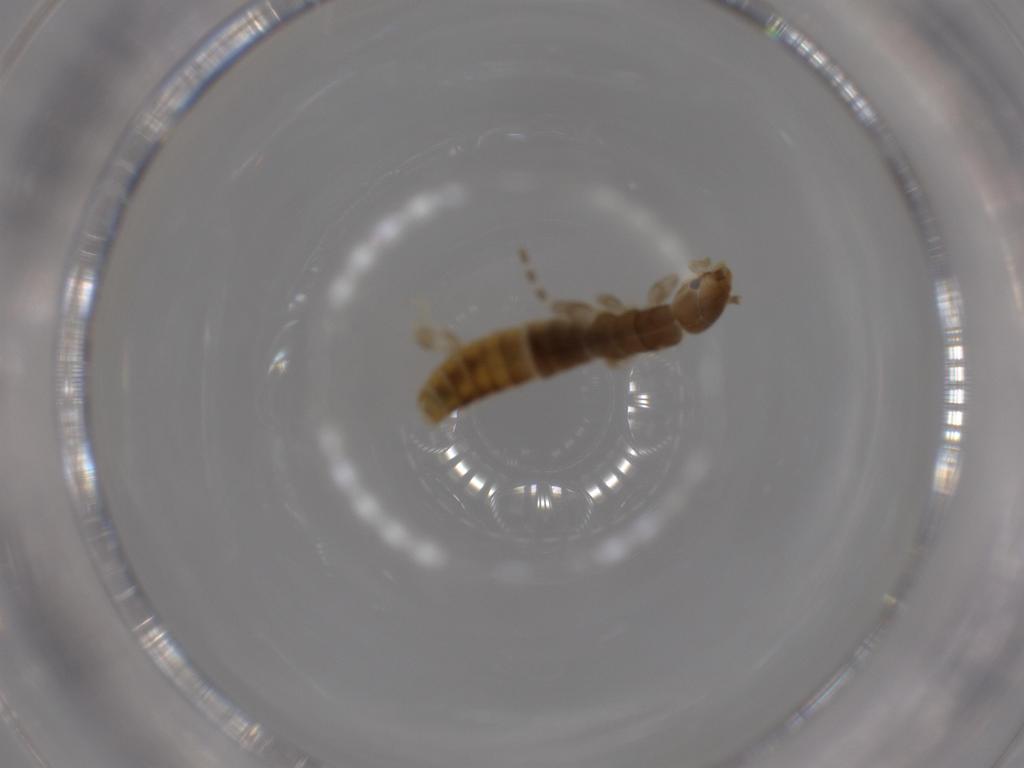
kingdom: Animalia
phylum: Arthropoda
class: Insecta
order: Dermaptera
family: Forficulidae
